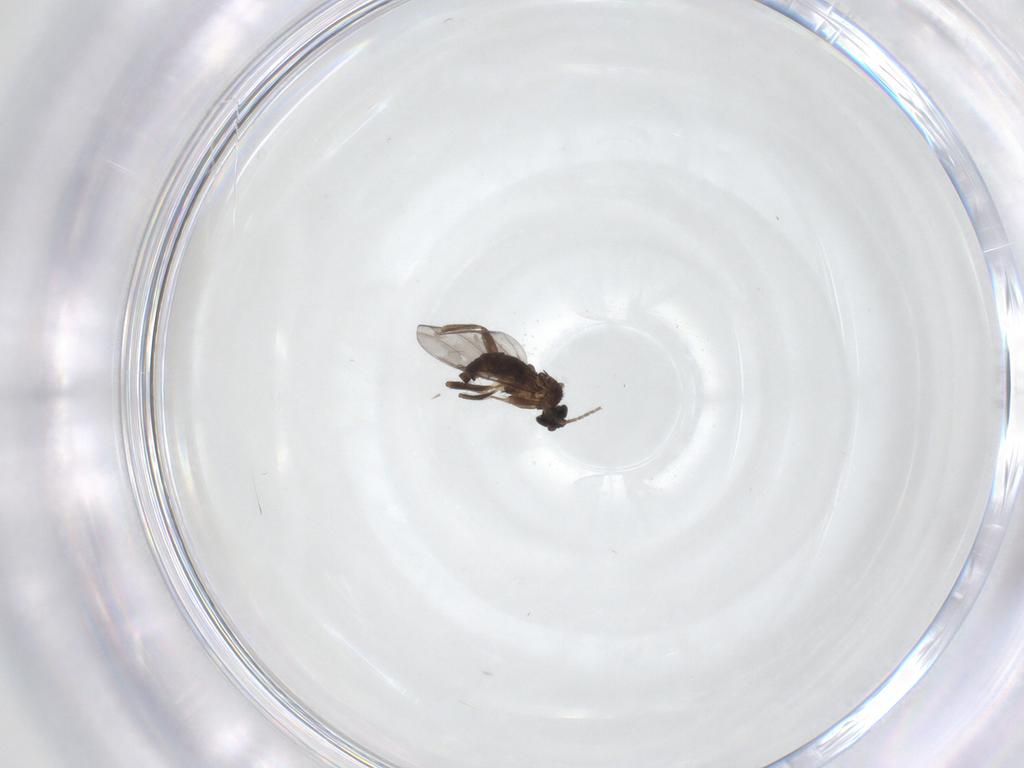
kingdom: Animalia
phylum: Arthropoda
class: Insecta
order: Diptera
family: Phoridae
